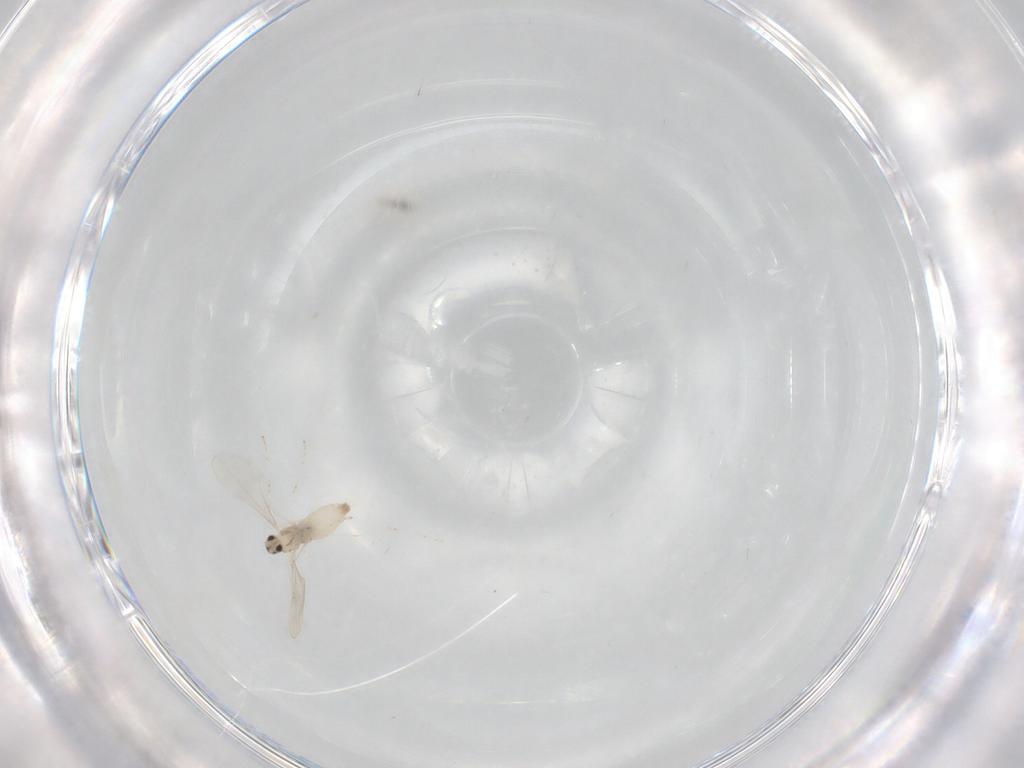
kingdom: Animalia
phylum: Arthropoda
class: Insecta
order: Diptera
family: Cecidomyiidae
